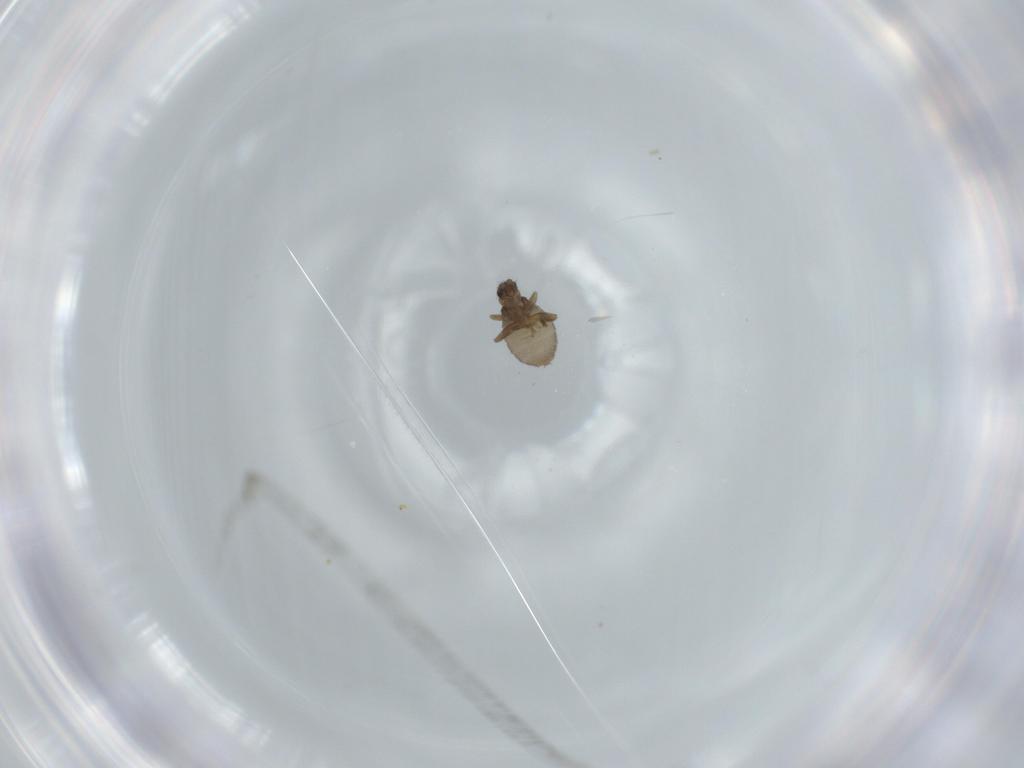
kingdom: Animalia
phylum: Arthropoda
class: Insecta
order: Diptera
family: Phoridae
